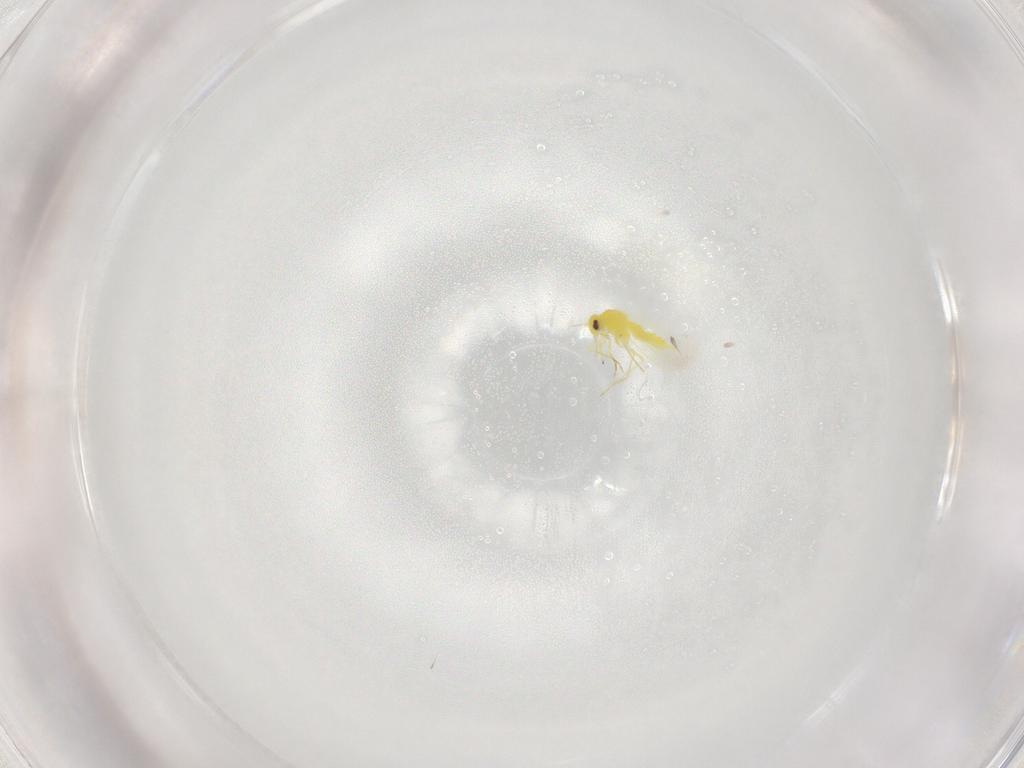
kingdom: Animalia
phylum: Arthropoda
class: Insecta
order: Hemiptera
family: Aleyrodidae
